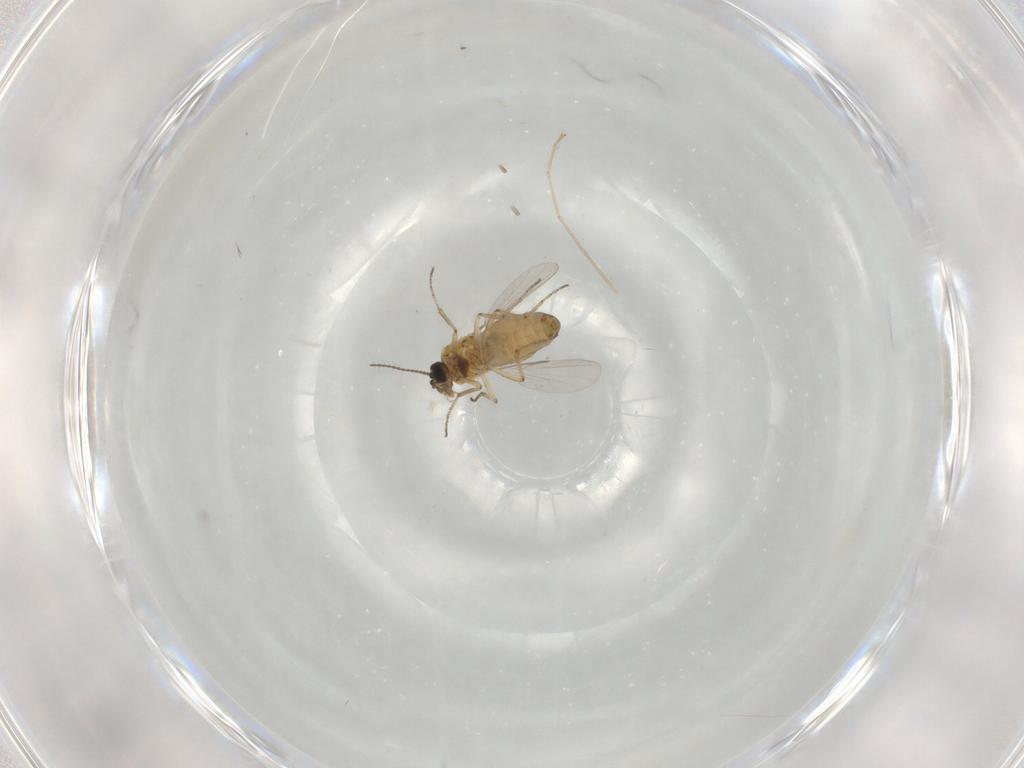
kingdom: Animalia
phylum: Arthropoda
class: Insecta
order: Diptera
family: Ceratopogonidae
